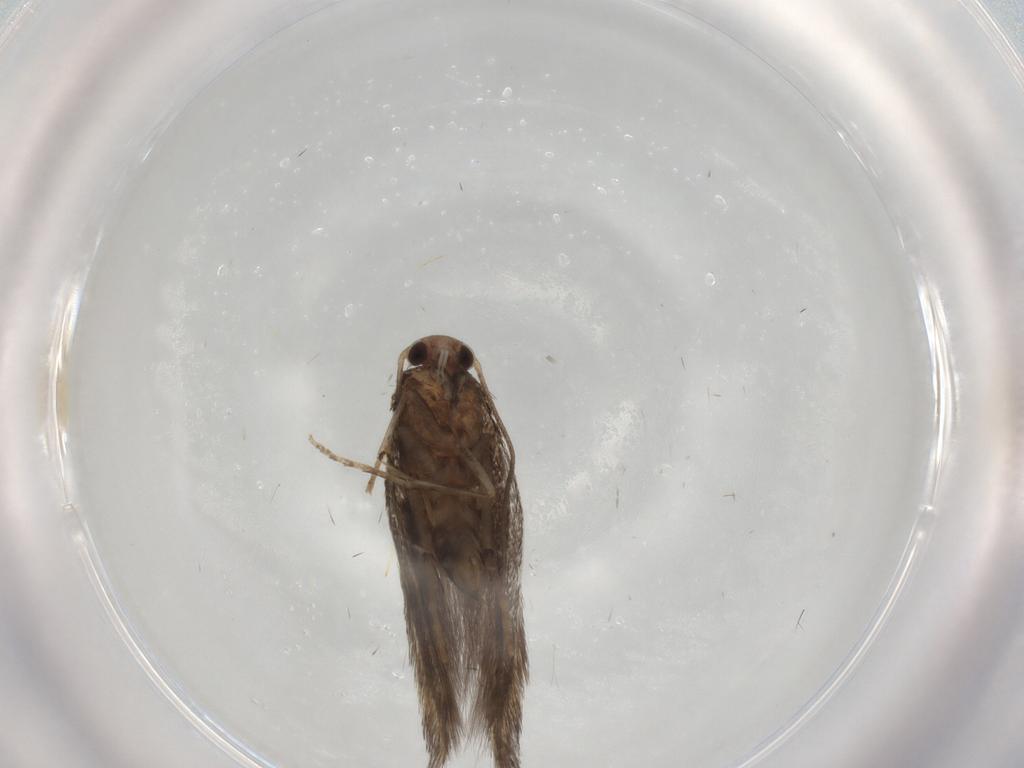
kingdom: Animalia
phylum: Arthropoda
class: Insecta
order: Lepidoptera
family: Elachistidae
